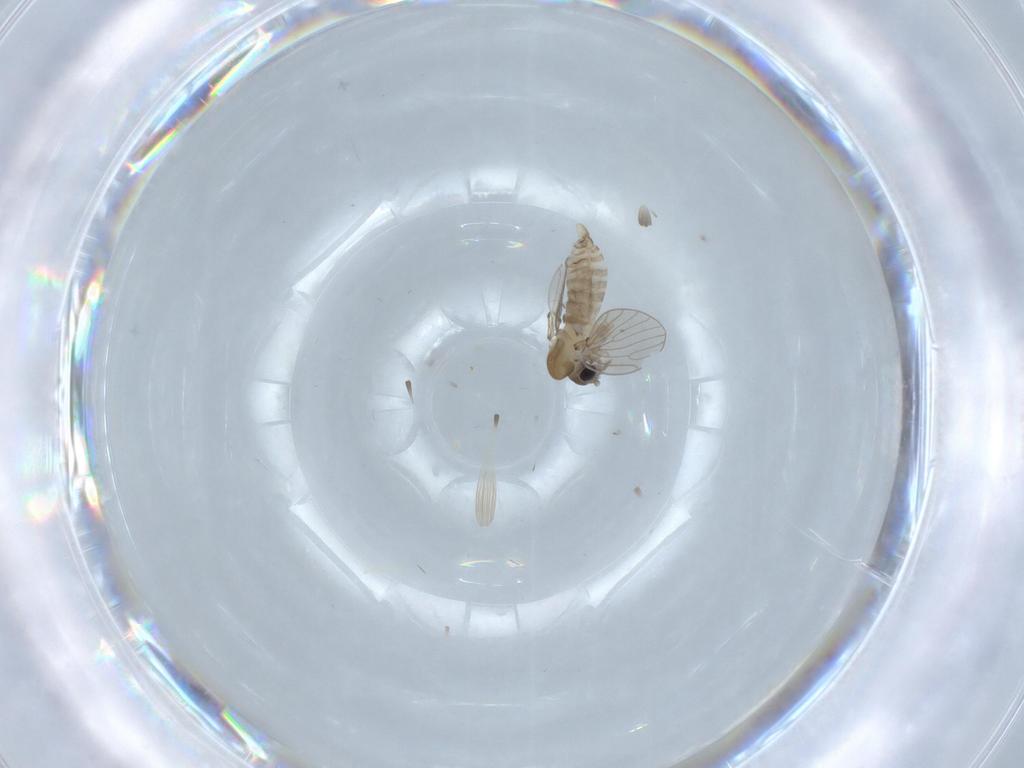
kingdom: Animalia
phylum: Arthropoda
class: Insecta
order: Diptera
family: Psychodidae
